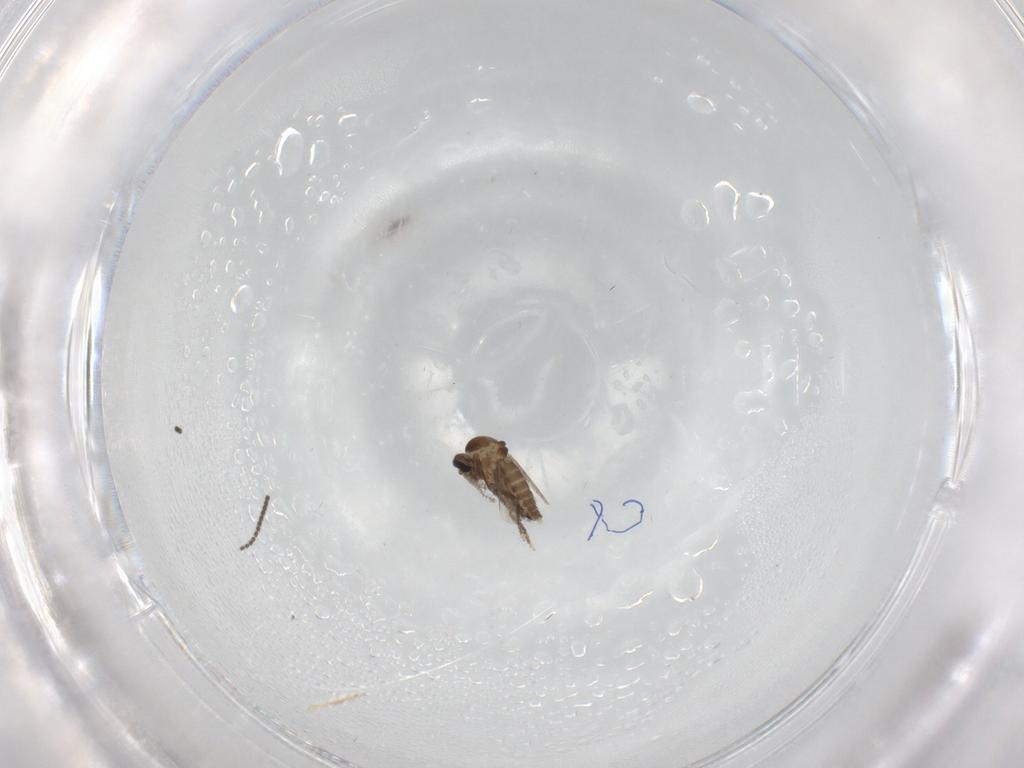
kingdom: Animalia
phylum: Arthropoda
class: Insecta
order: Diptera
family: Ceratopogonidae
